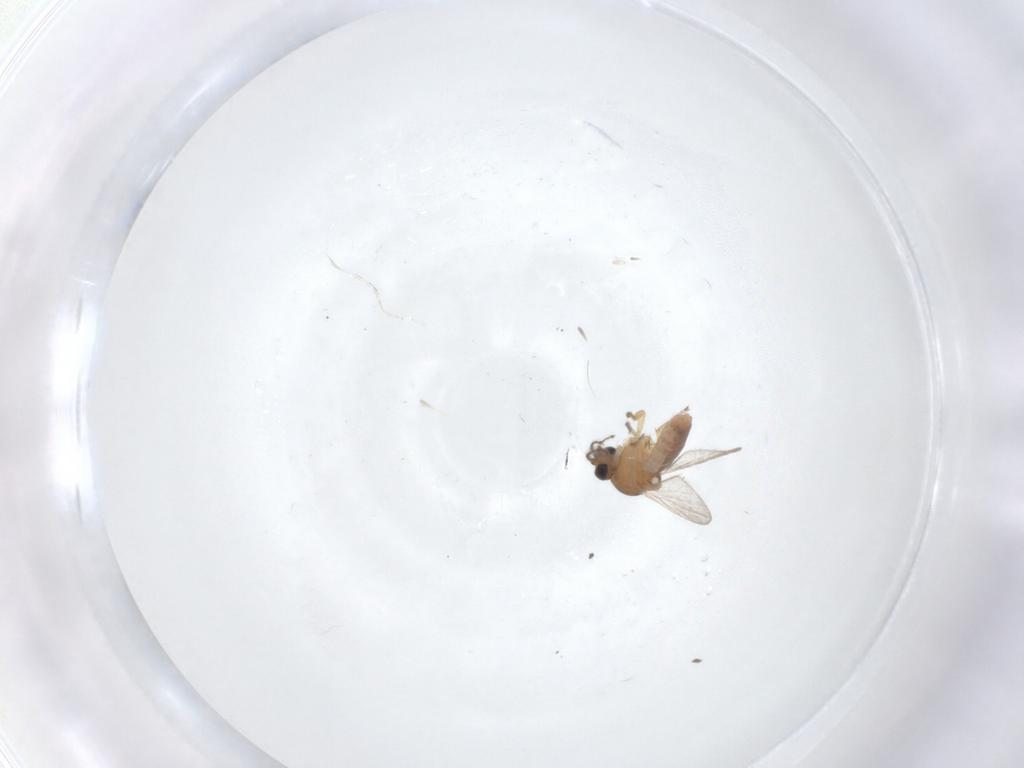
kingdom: Animalia
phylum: Arthropoda
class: Insecta
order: Diptera
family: Ceratopogonidae
